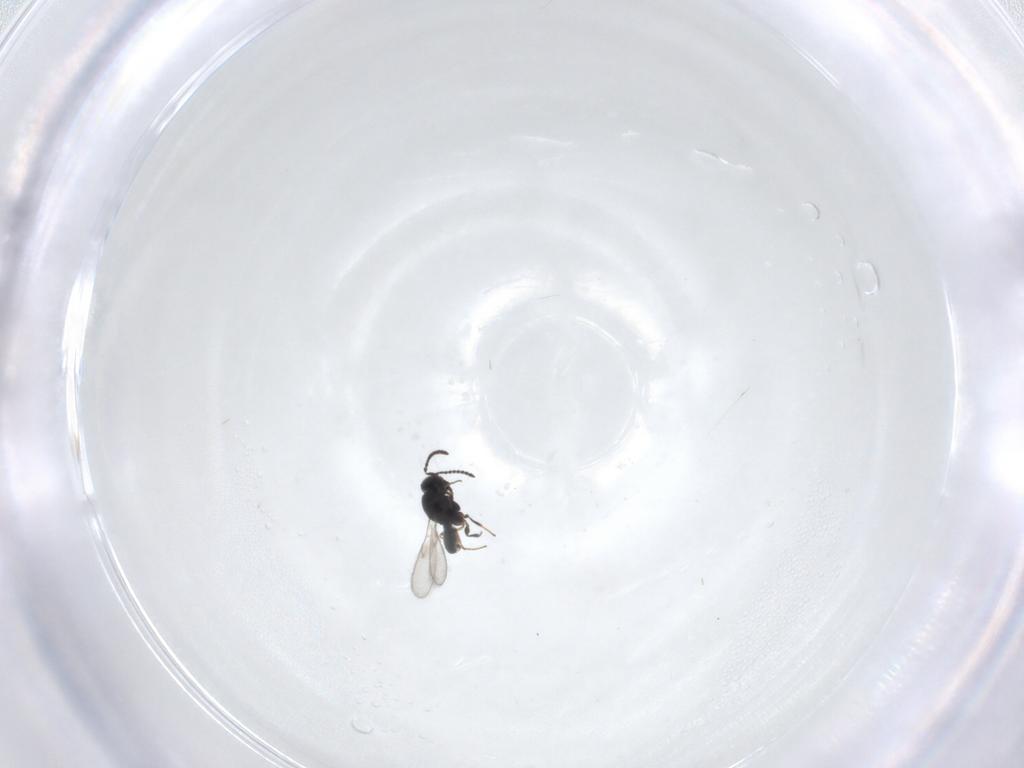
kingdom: Animalia
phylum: Arthropoda
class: Insecta
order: Hymenoptera
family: Scelionidae
